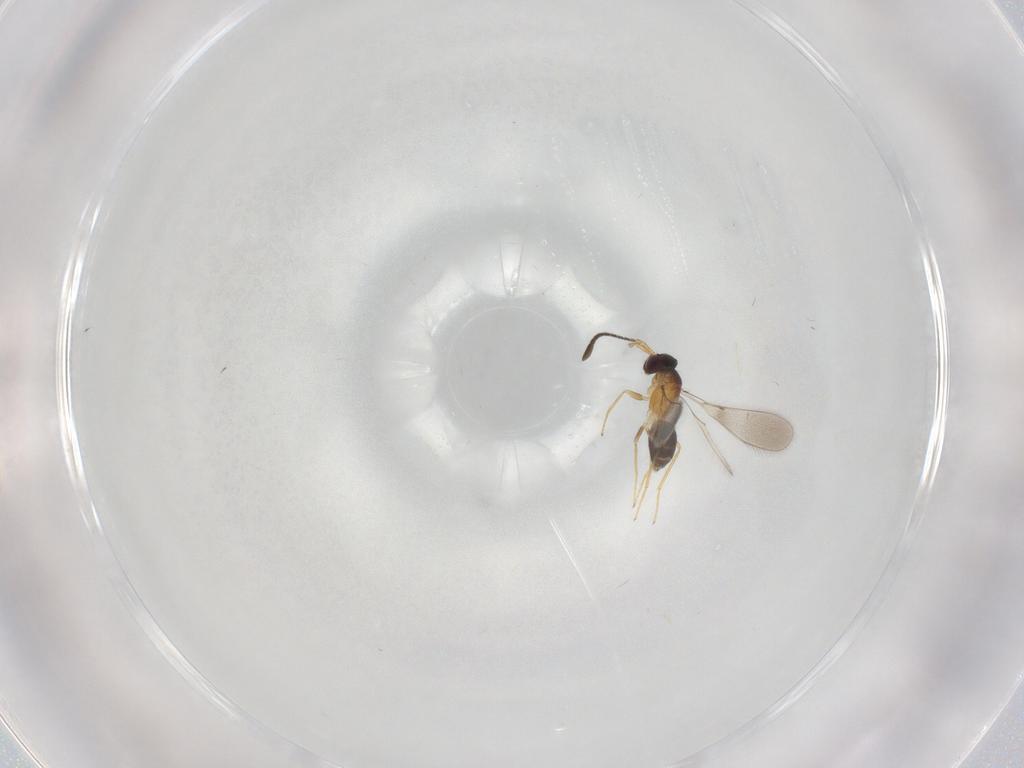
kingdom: Animalia
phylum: Arthropoda
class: Insecta
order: Hymenoptera
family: Mymaridae
